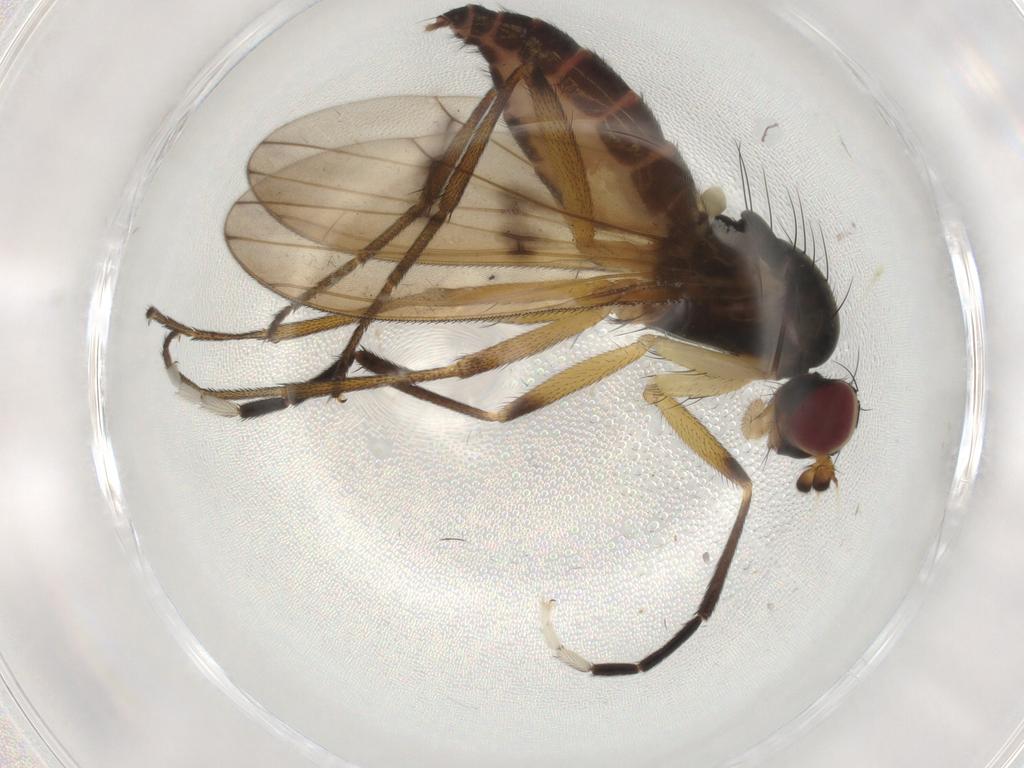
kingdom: Animalia
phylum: Arthropoda
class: Insecta
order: Diptera
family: Sciomyzidae
